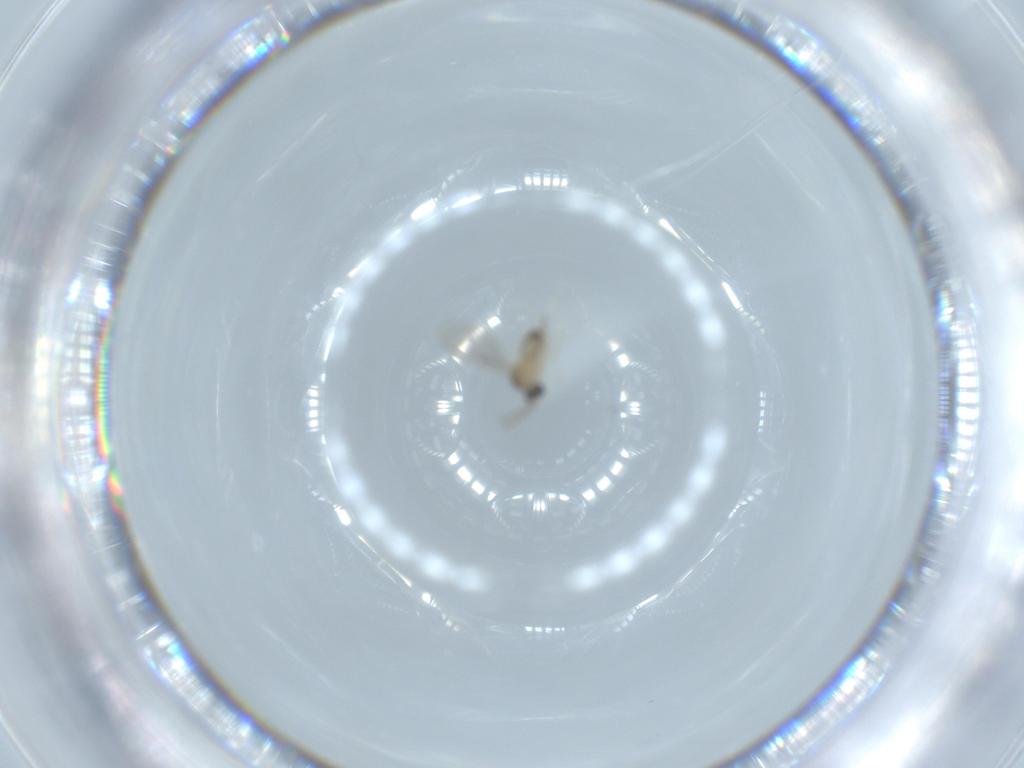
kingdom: Animalia
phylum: Arthropoda
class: Insecta
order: Diptera
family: Cecidomyiidae
